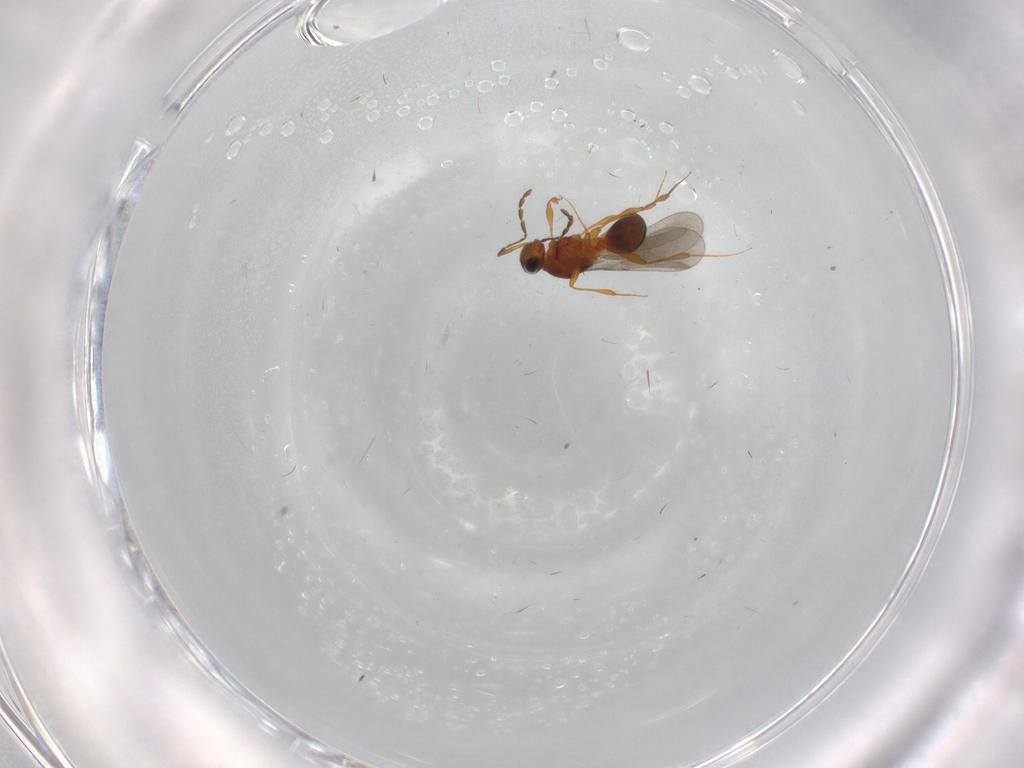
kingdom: Animalia
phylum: Arthropoda
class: Insecta
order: Hymenoptera
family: Platygastridae
